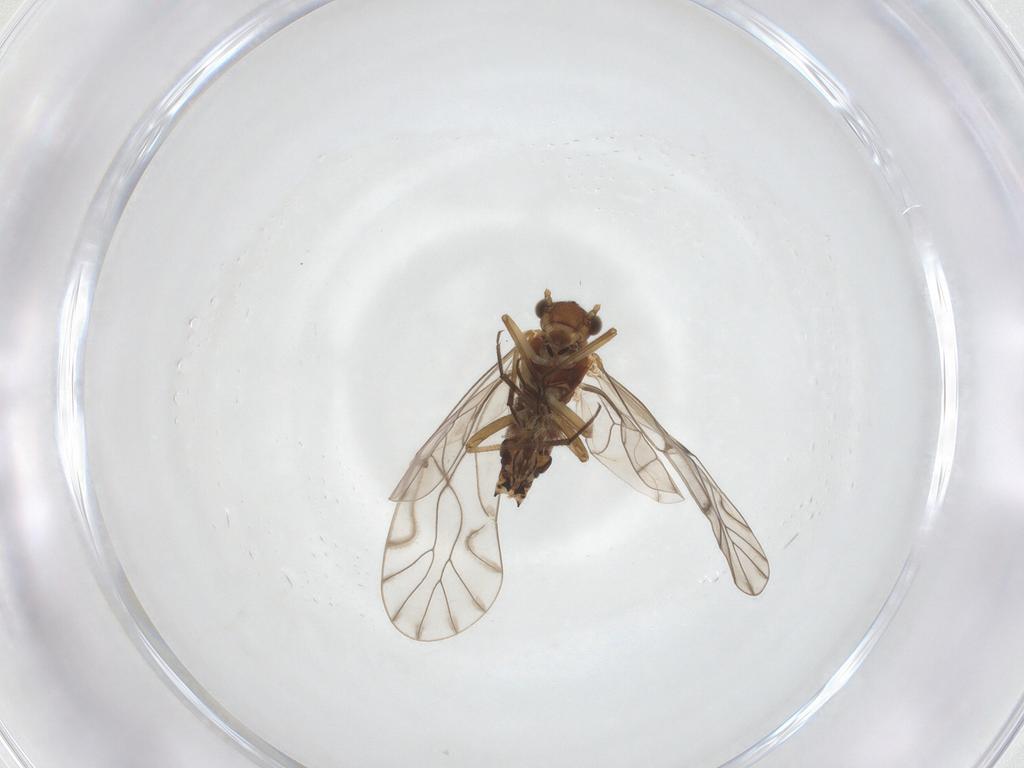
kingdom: Animalia
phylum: Arthropoda
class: Insecta
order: Psocodea
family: Lachesillidae
